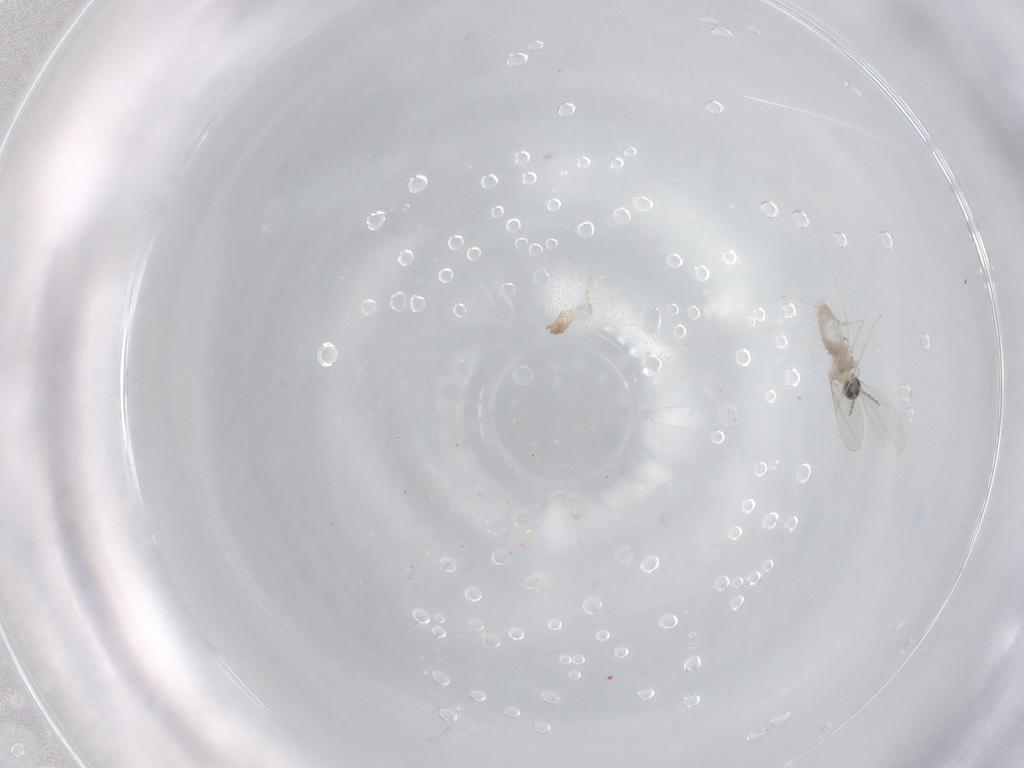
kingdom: Animalia
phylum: Arthropoda
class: Insecta
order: Diptera
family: Cecidomyiidae
